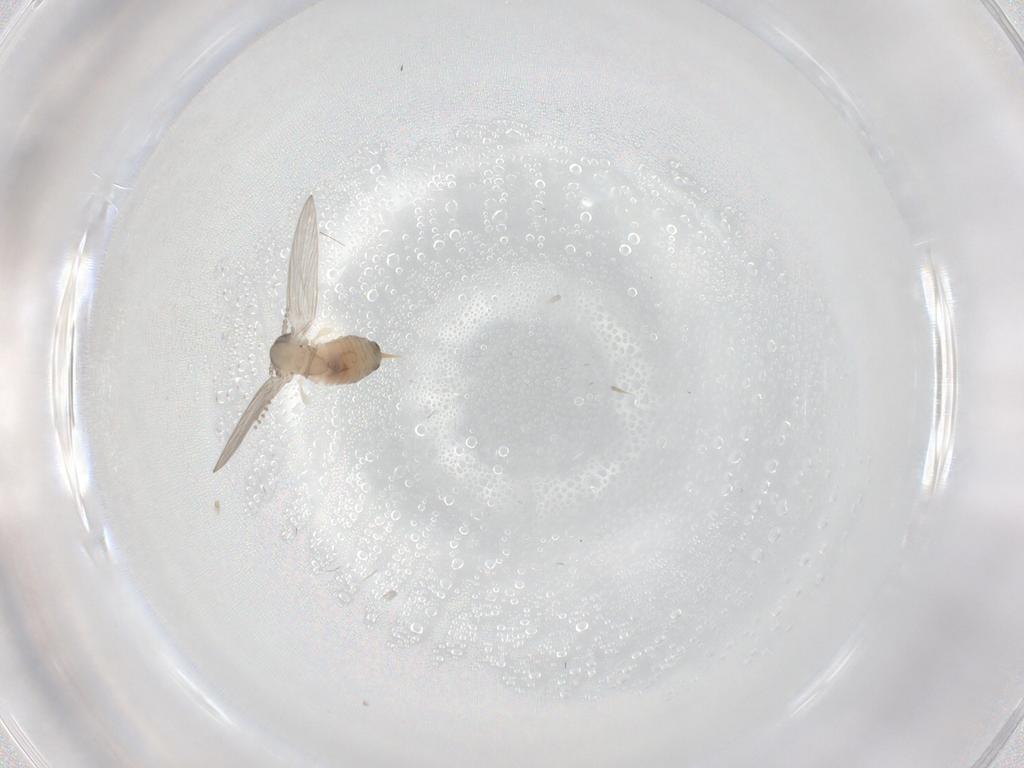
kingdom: Animalia
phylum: Arthropoda
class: Insecta
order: Diptera
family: Psychodidae
